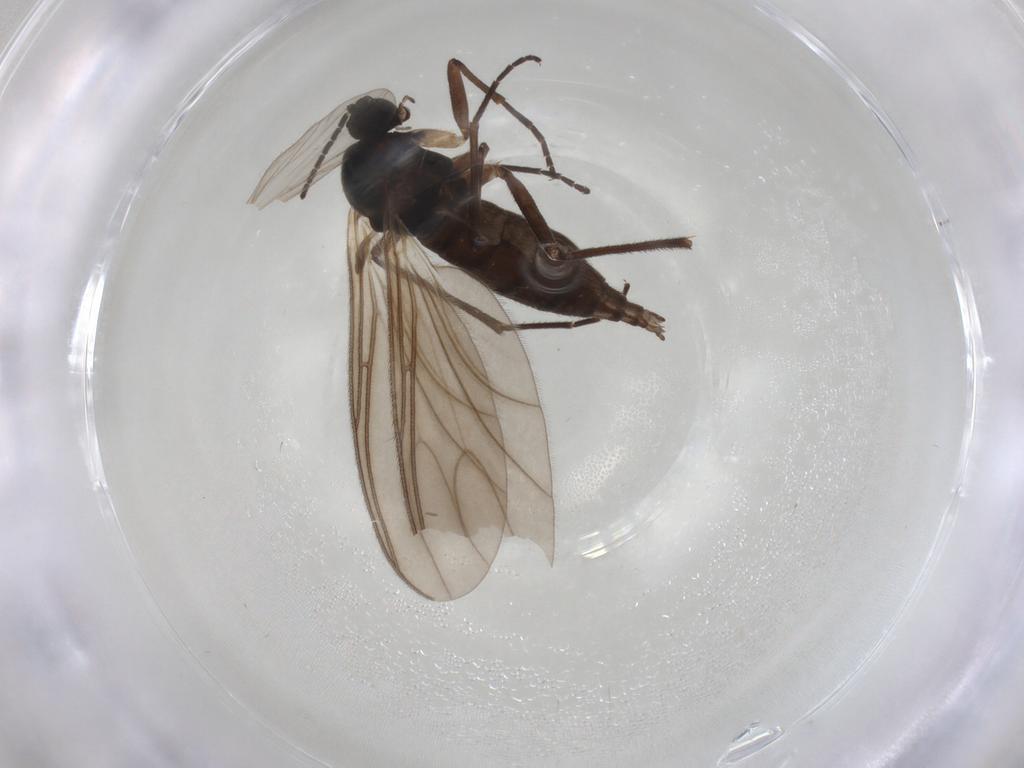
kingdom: Animalia
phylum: Arthropoda
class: Insecta
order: Diptera
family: Sciaridae
